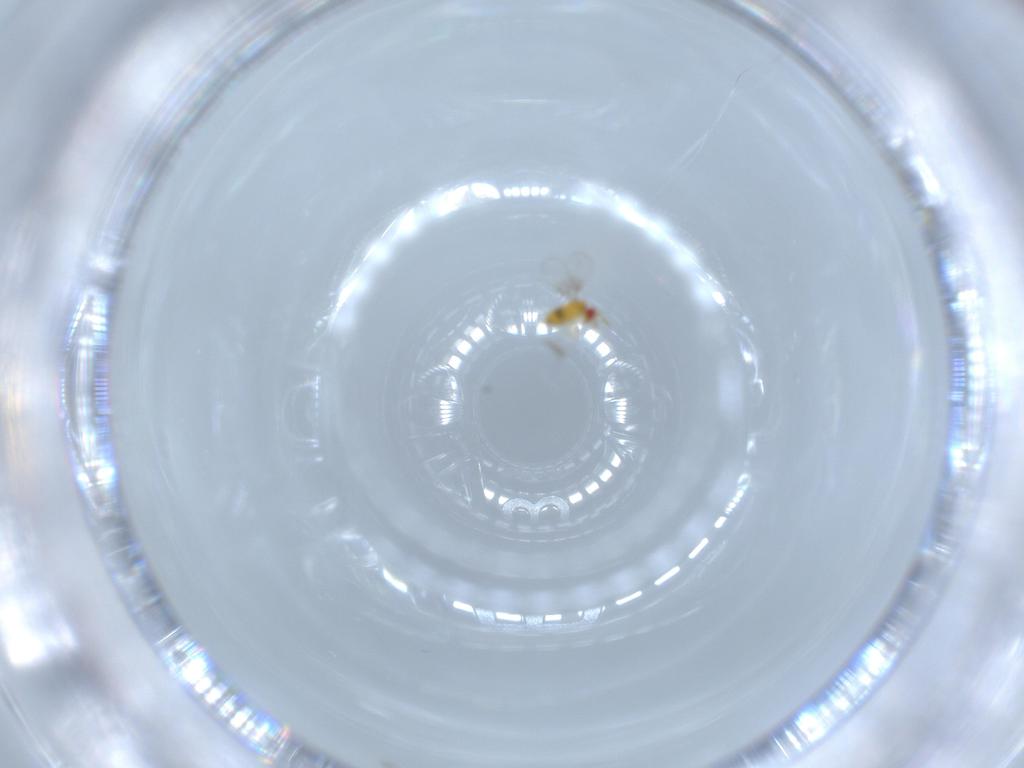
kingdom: Animalia
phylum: Arthropoda
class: Insecta
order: Hymenoptera
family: Trichogrammatidae
